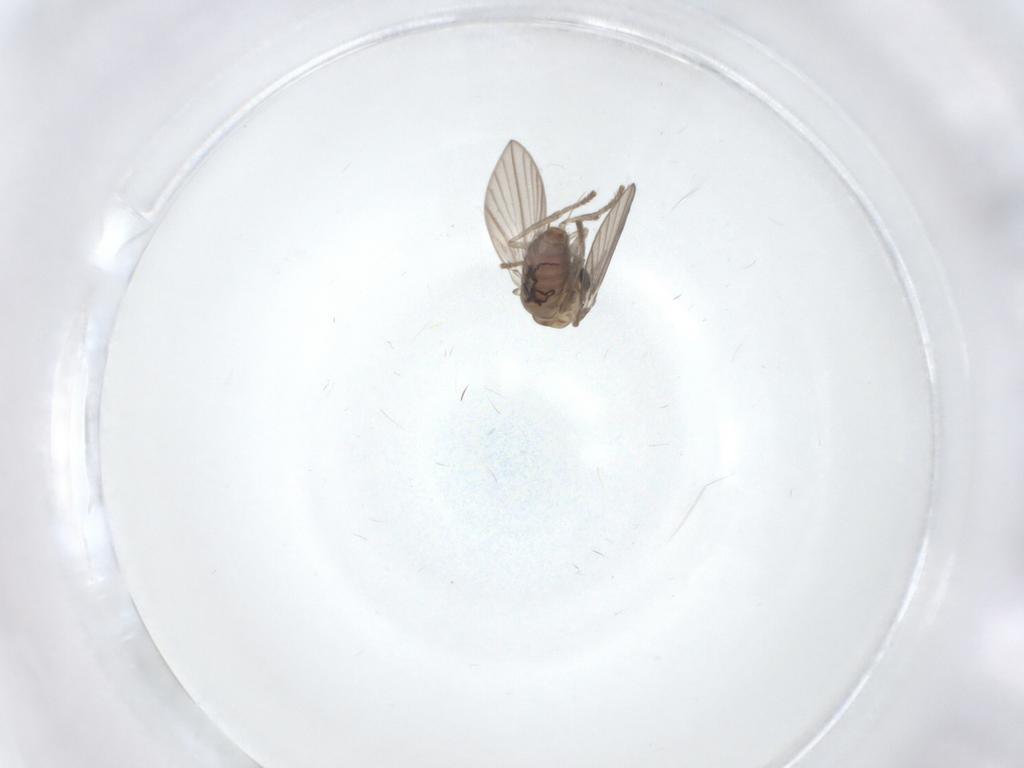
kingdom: Animalia
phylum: Arthropoda
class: Insecta
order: Diptera
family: Psychodidae
